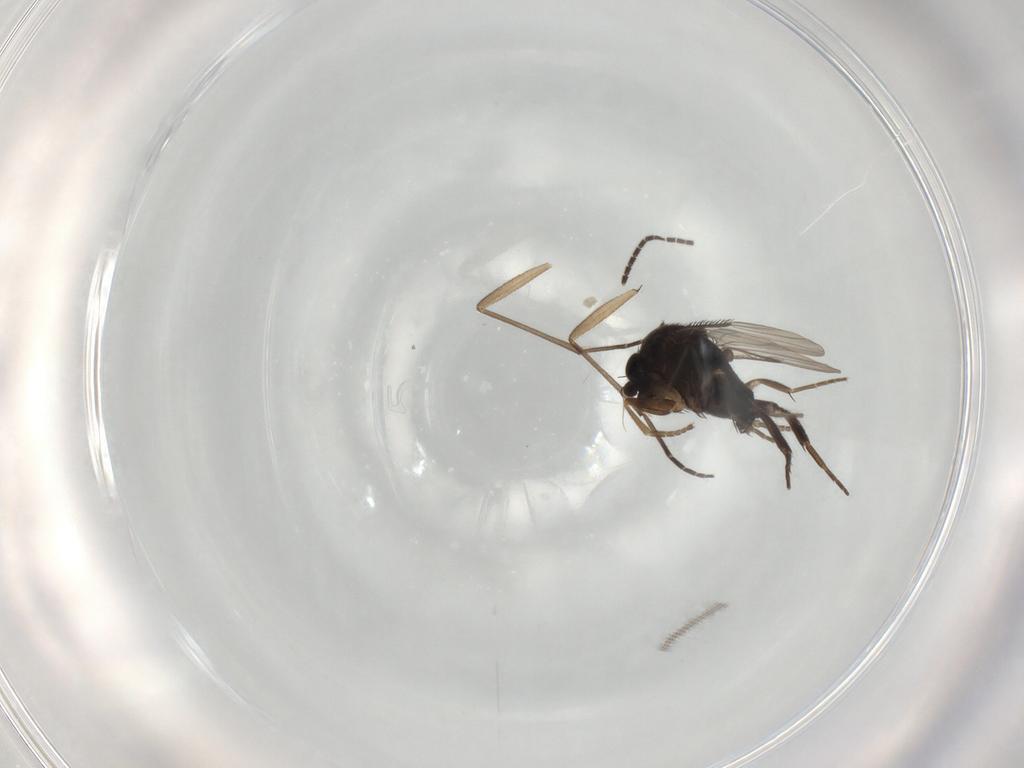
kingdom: Animalia
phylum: Arthropoda
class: Insecta
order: Diptera
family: Phoridae
